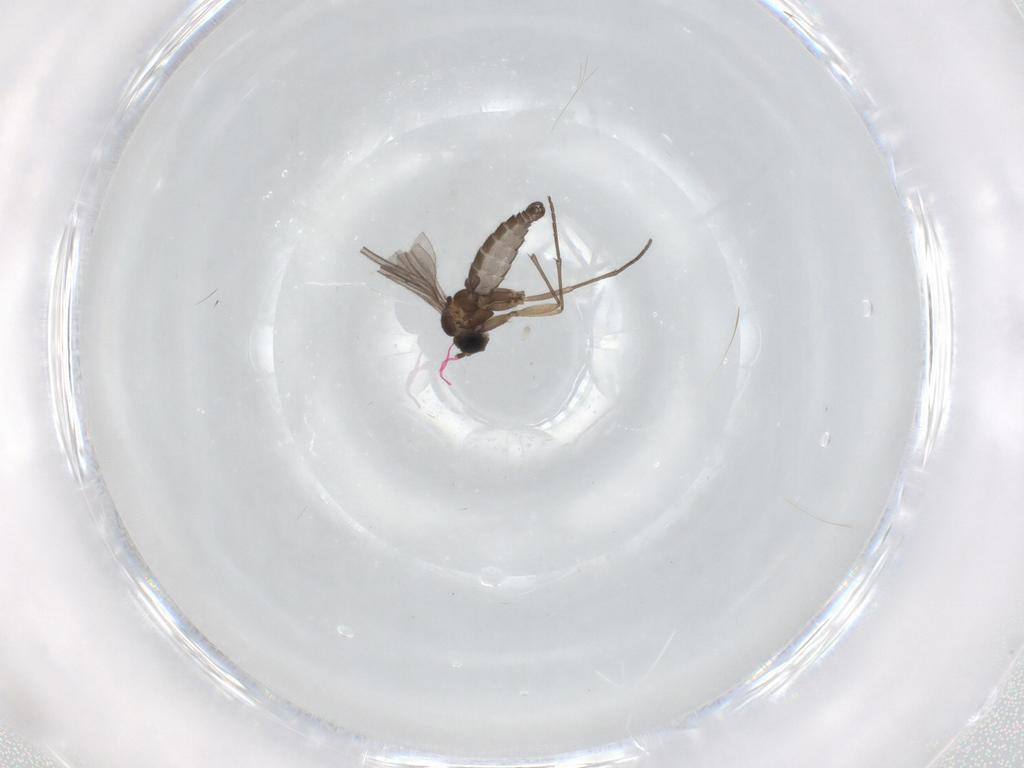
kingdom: Animalia
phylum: Arthropoda
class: Insecta
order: Diptera
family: Sciaridae
